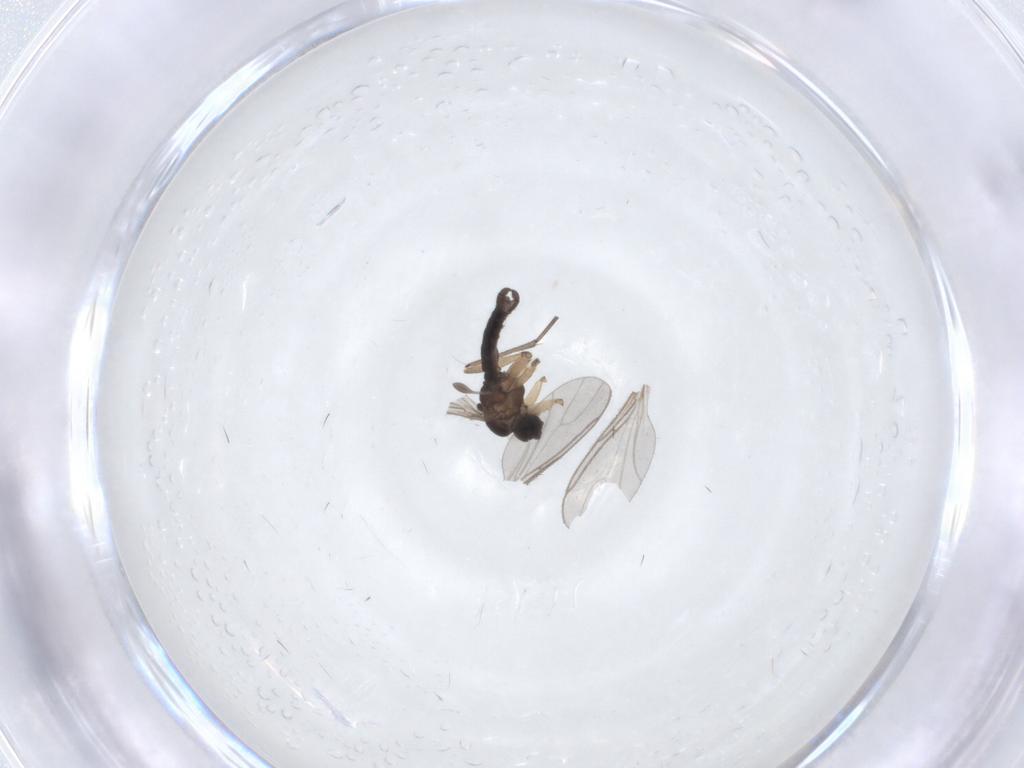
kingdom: Animalia
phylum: Arthropoda
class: Insecta
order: Diptera
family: Sciaridae
